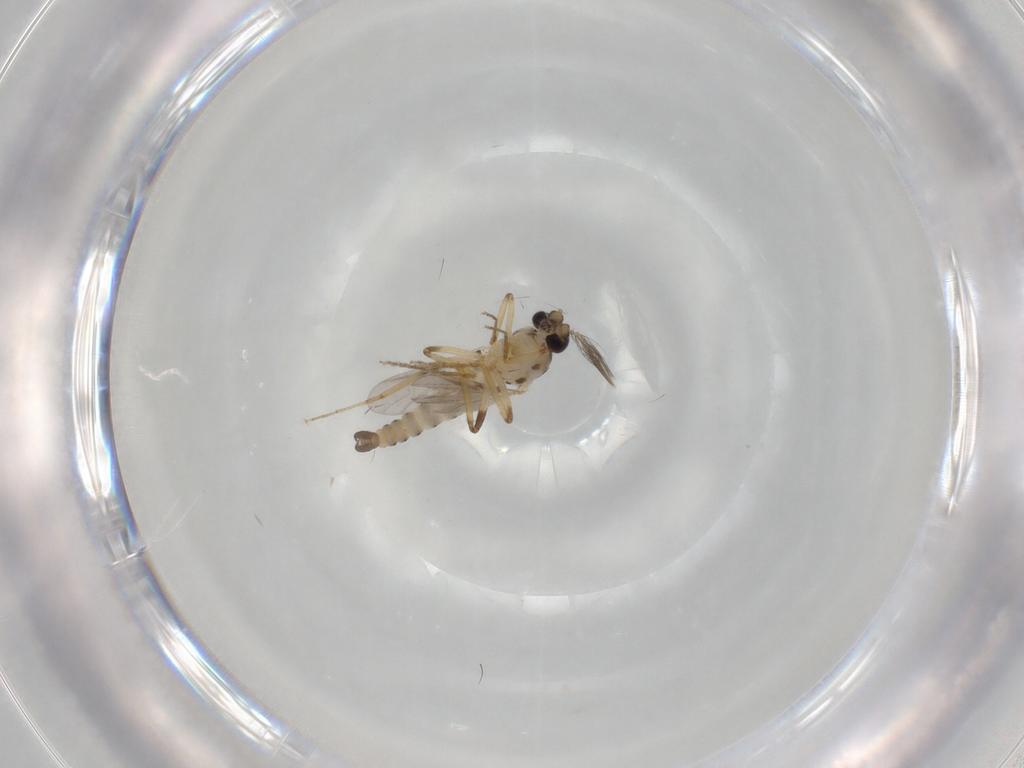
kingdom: Animalia
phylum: Arthropoda
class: Insecta
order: Diptera
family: Ceratopogonidae
